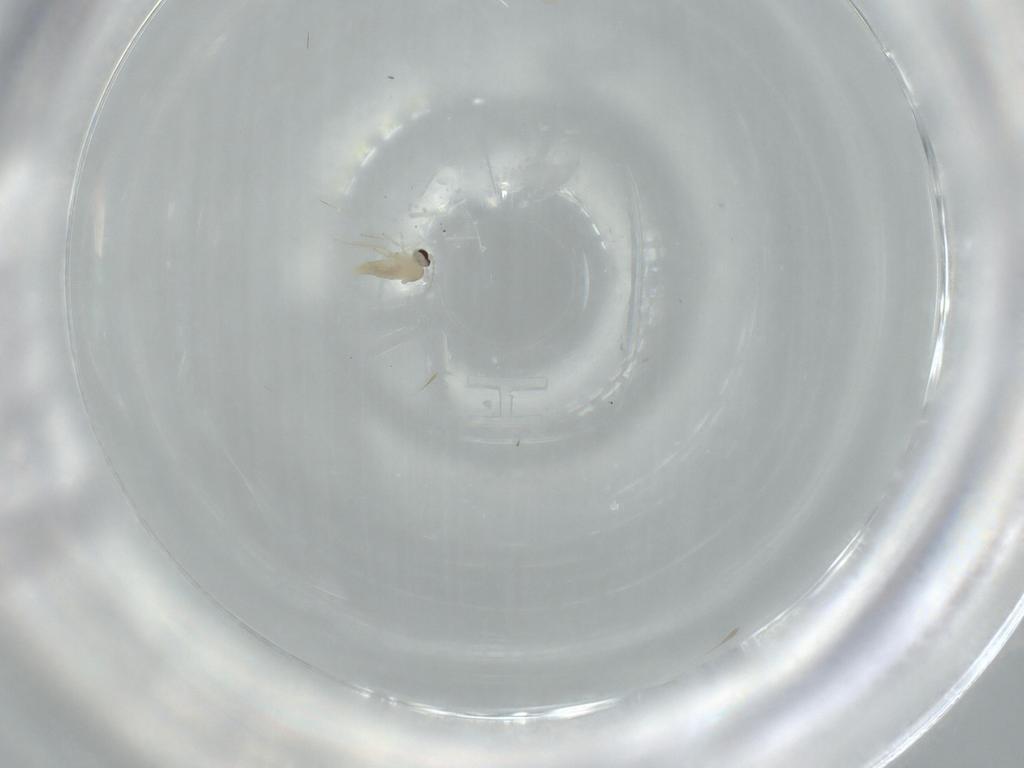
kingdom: Animalia
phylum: Arthropoda
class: Insecta
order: Diptera
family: Cecidomyiidae
